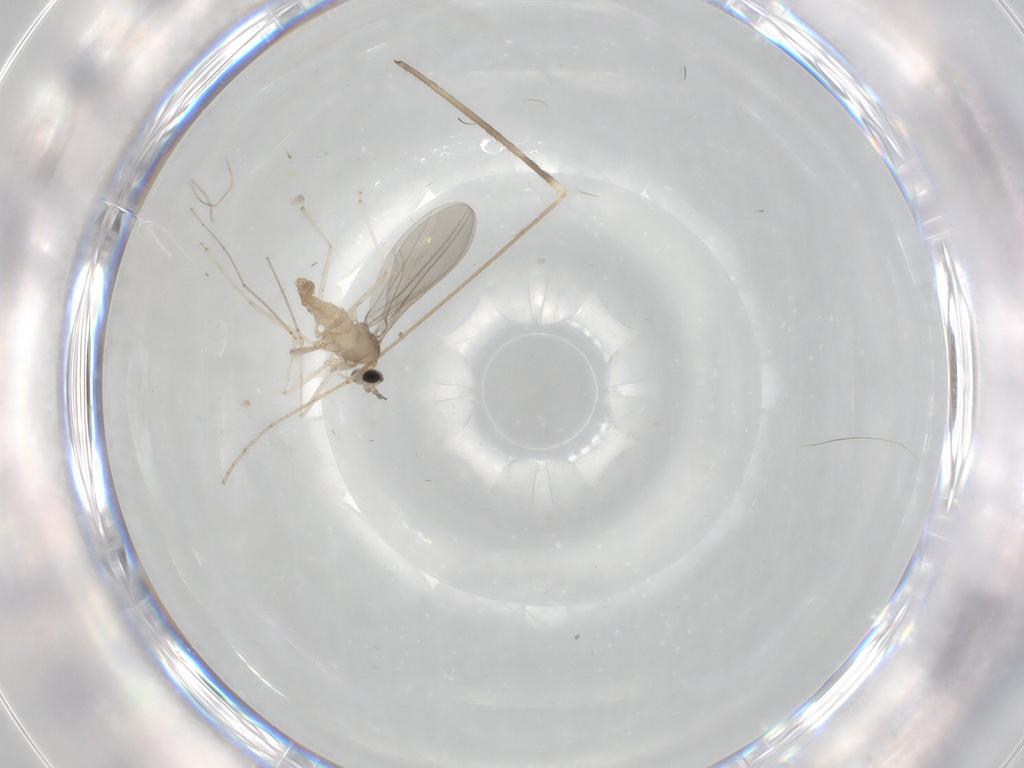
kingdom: Animalia
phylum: Arthropoda
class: Insecta
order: Diptera
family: Cecidomyiidae
